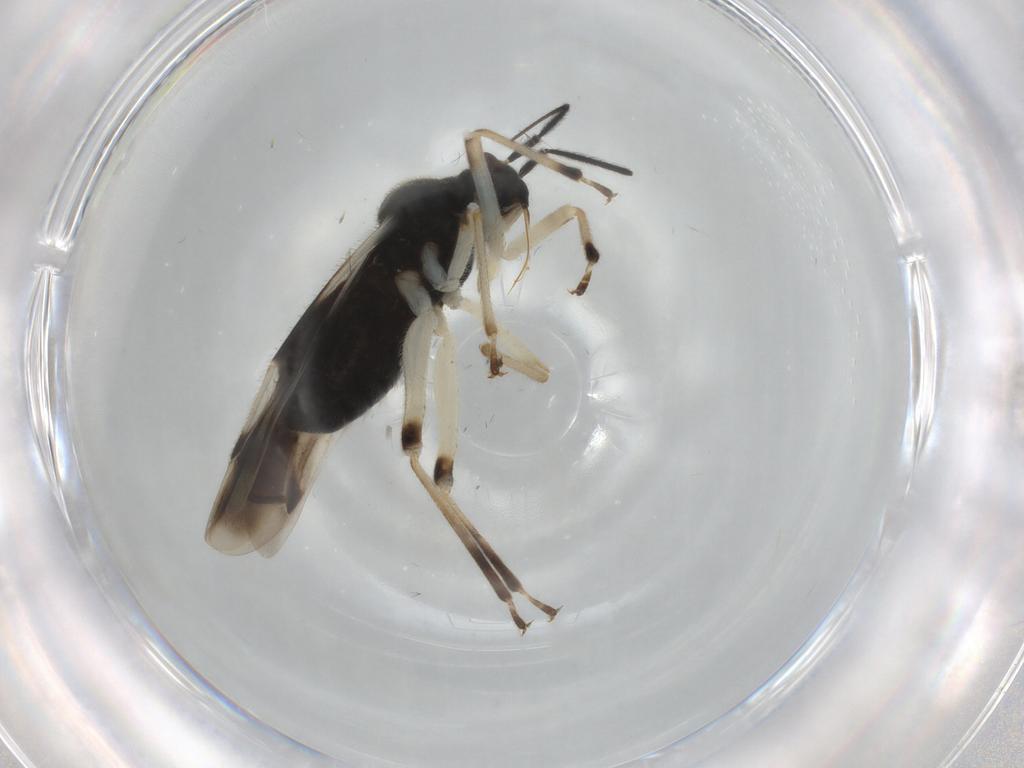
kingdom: Animalia
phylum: Arthropoda
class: Insecta
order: Hemiptera
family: Miridae
